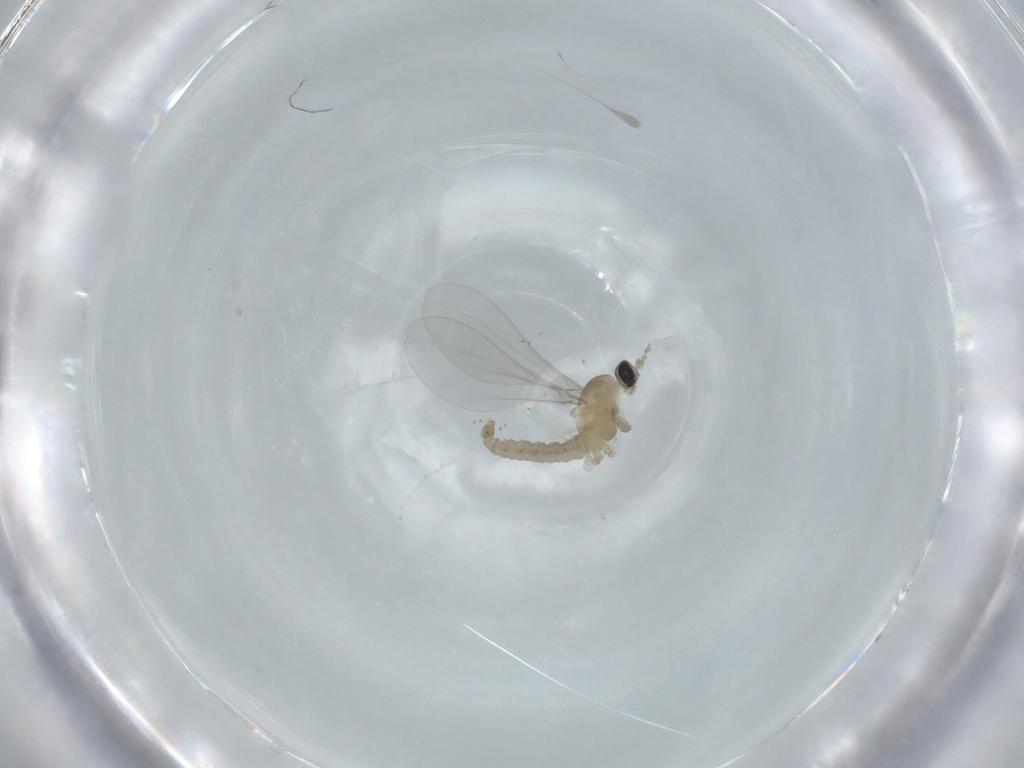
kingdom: Animalia
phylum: Arthropoda
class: Insecta
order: Diptera
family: Cecidomyiidae
